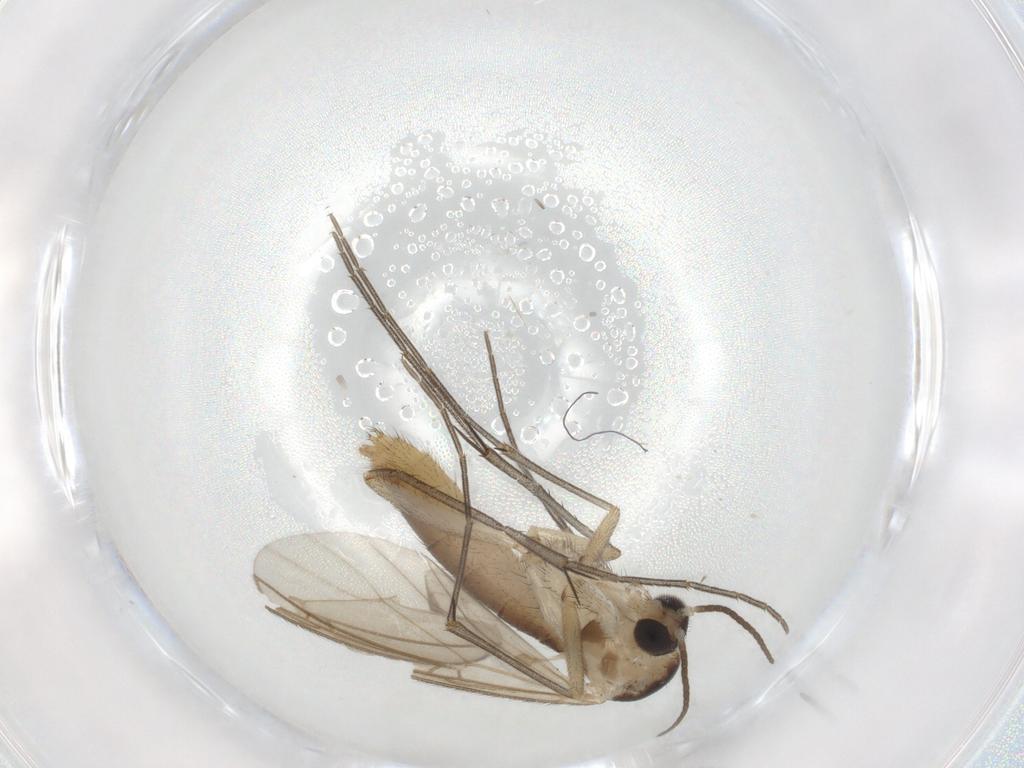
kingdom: Animalia
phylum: Arthropoda
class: Insecta
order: Diptera
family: Mycetophilidae
